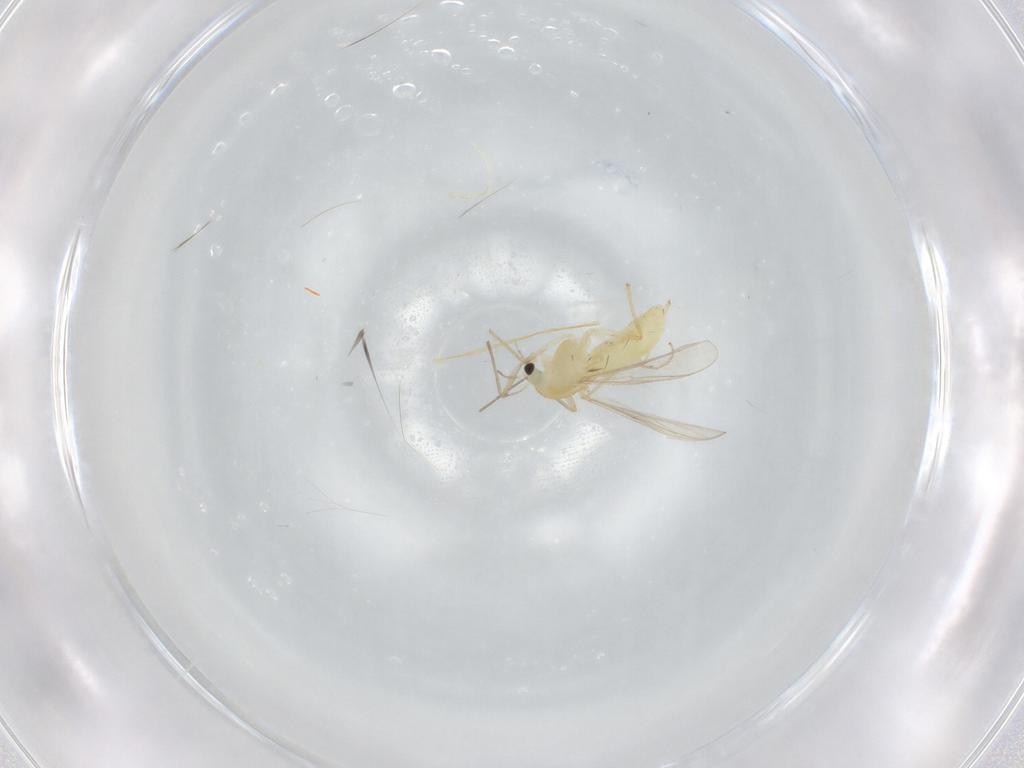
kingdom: Animalia
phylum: Arthropoda
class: Insecta
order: Diptera
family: Chironomidae
